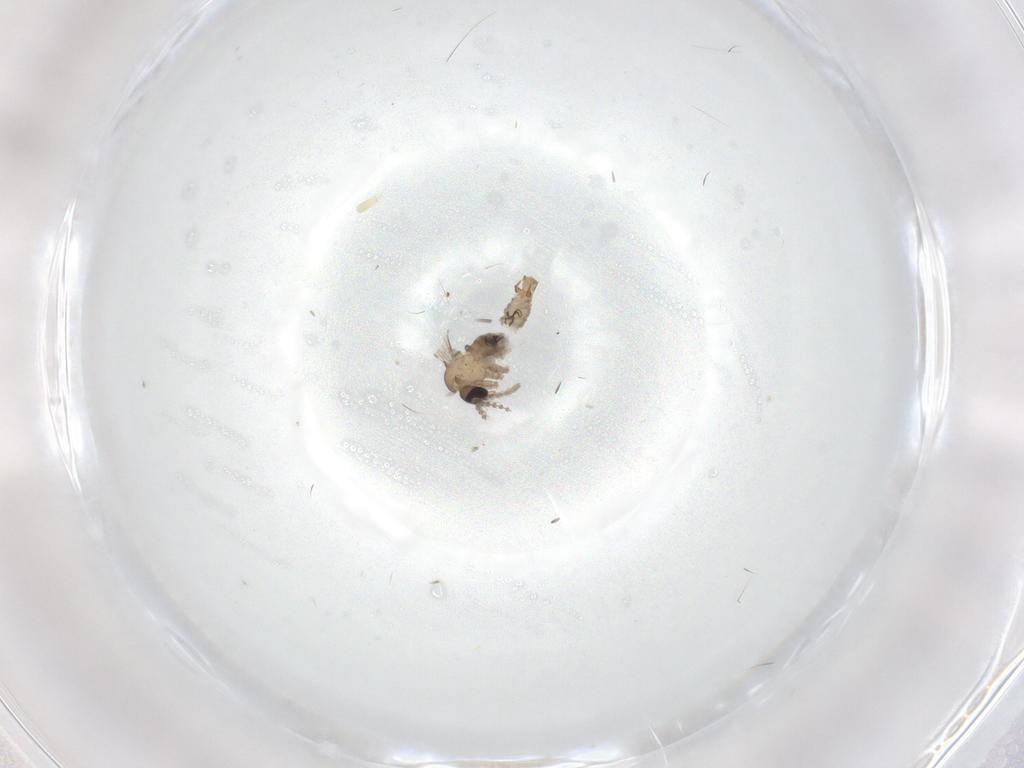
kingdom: Animalia
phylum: Arthropoda
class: Insecta
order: Diptera
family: Psychodidae
